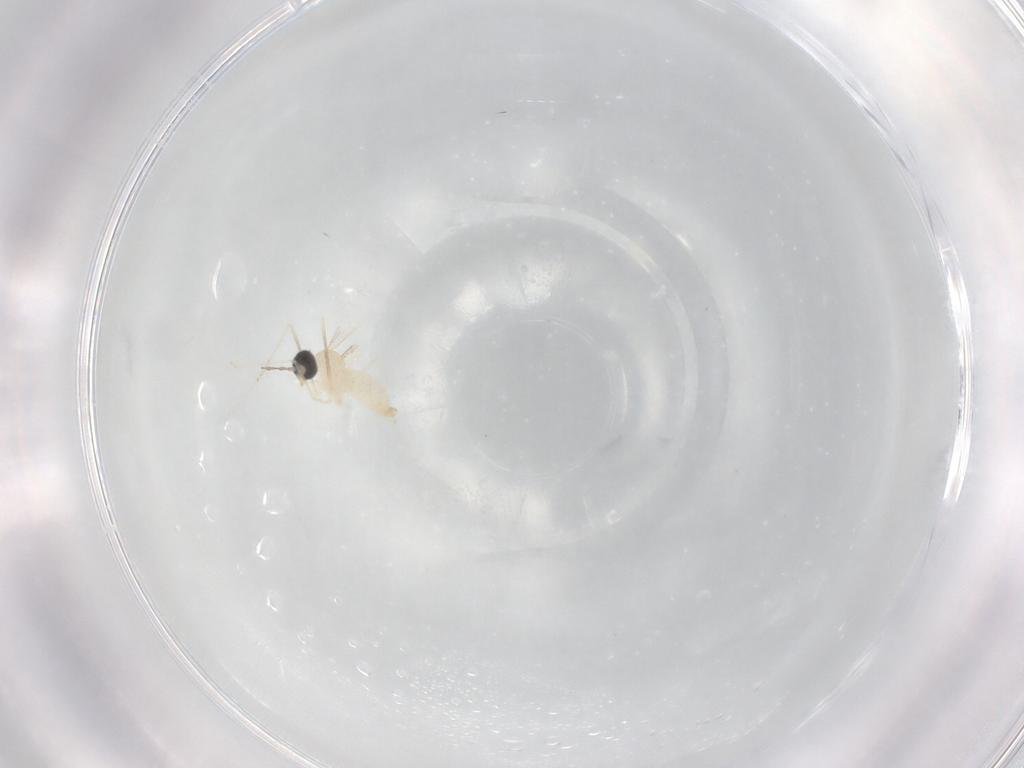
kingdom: Animalia
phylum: Arthropoda
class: Insecta
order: Diptera
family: Cecidomyiidae
